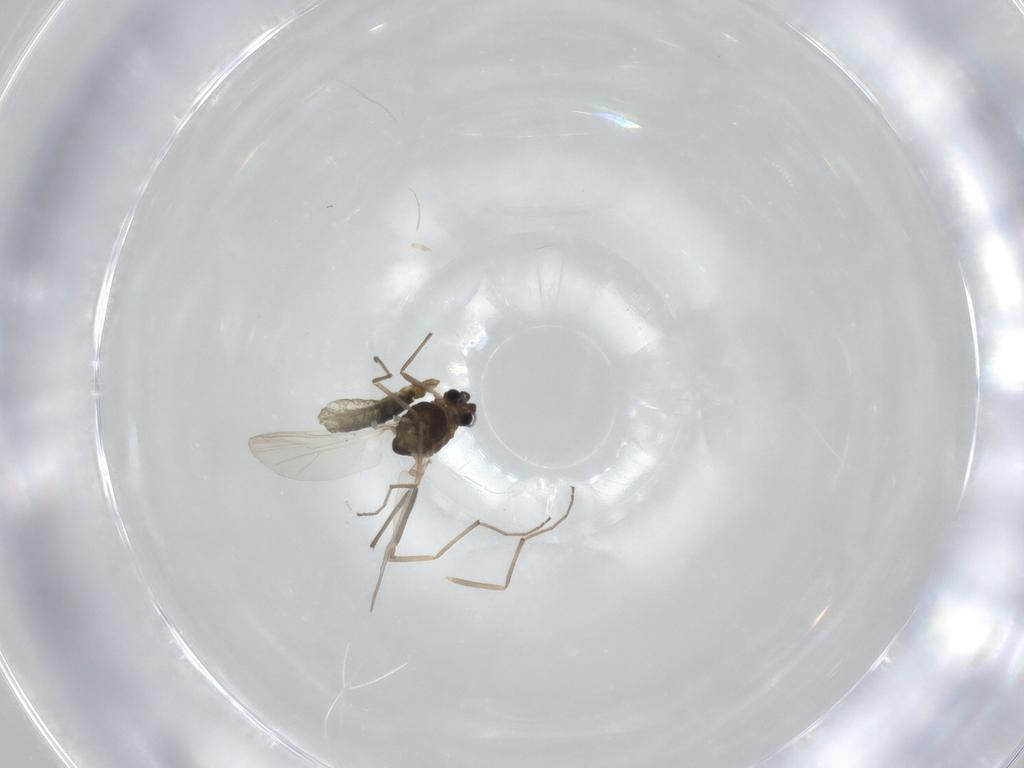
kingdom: Animalia
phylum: Arthropoda
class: Insecta
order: Diptera
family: Chironomidae
